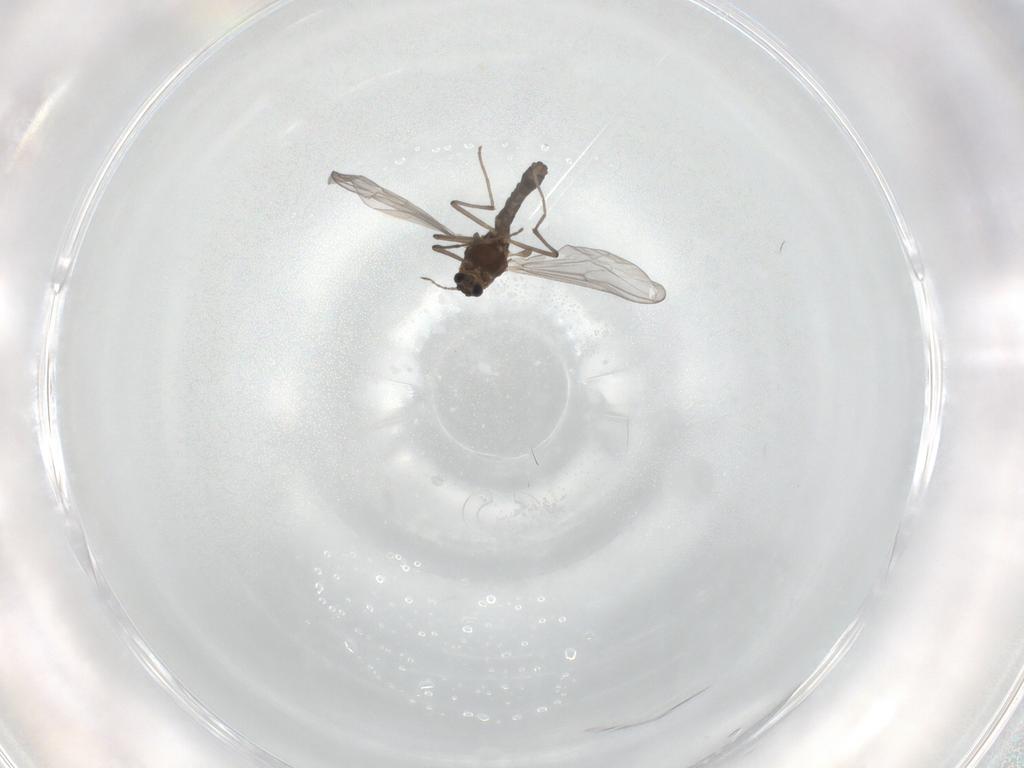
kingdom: Animalia
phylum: Arthropoda
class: Insecta
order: Diptera
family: Chironomidae
